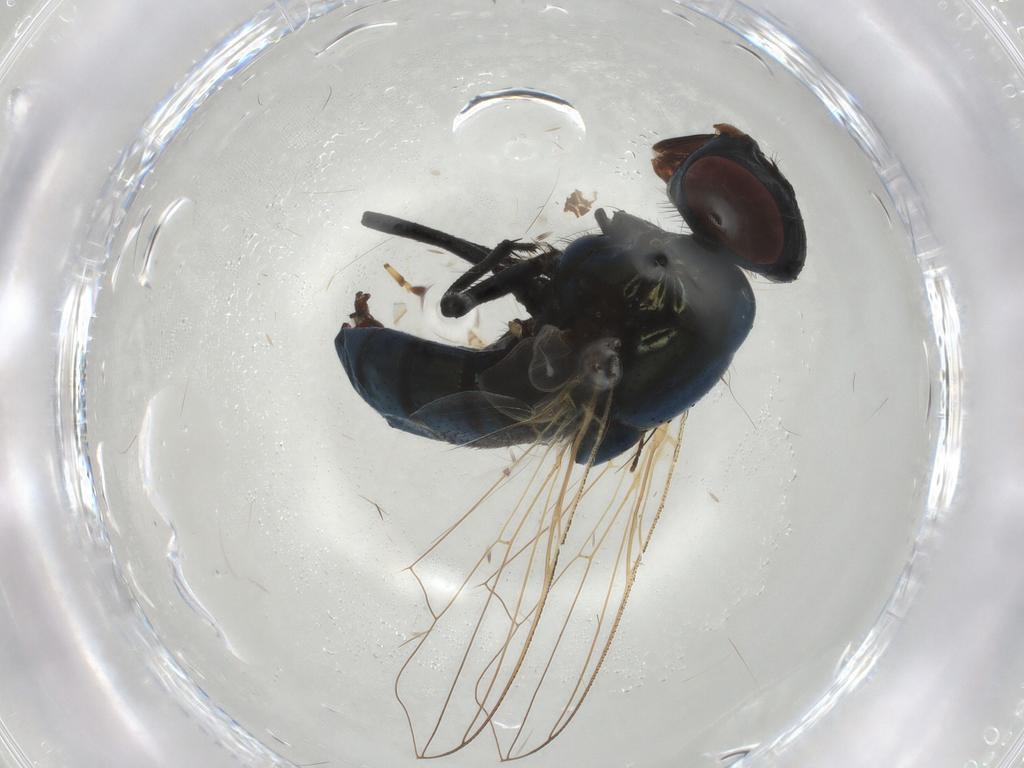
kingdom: Animalia
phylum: Arthropoda
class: Insecta
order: Diptera
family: Muscidae
